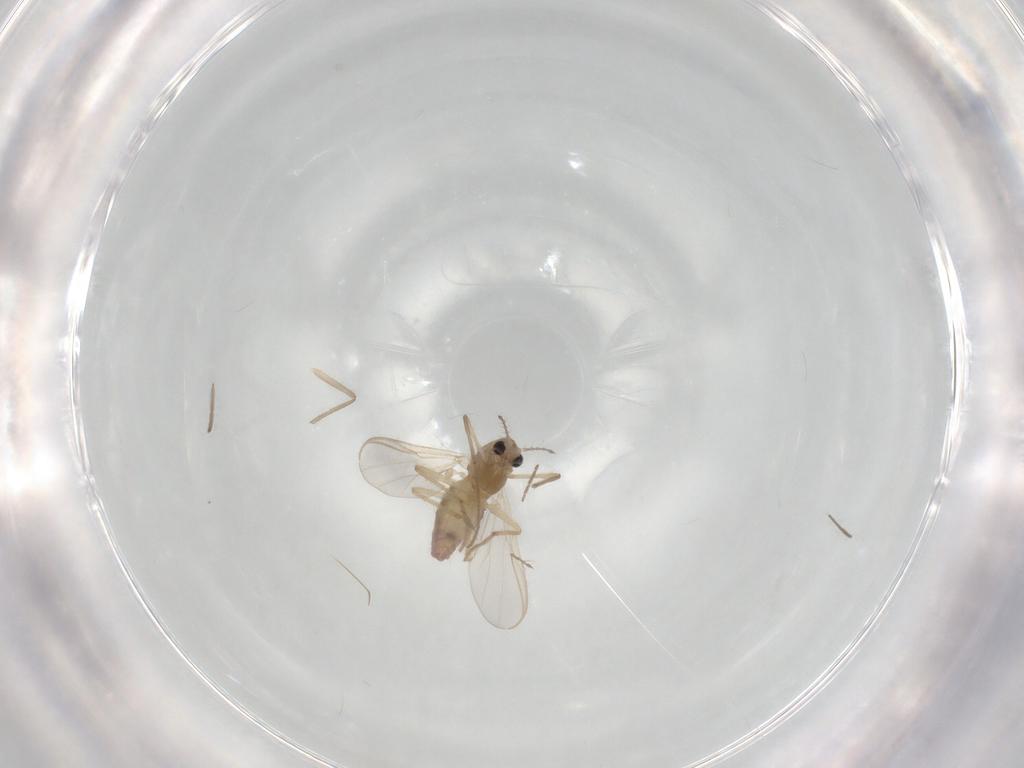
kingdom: Animalia
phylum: Arthropoda
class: Insecta
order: Diptera
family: Chironomidae
